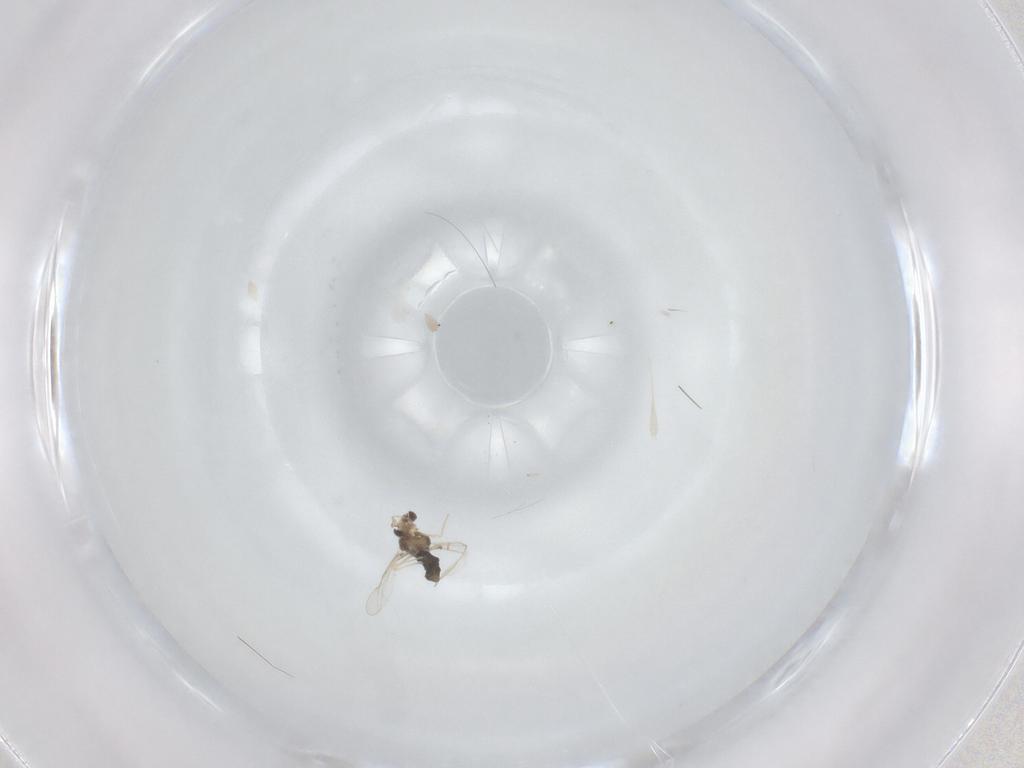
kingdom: Animalia
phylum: Arthropoda
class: Insecta
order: Diptera
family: Chironomidae
